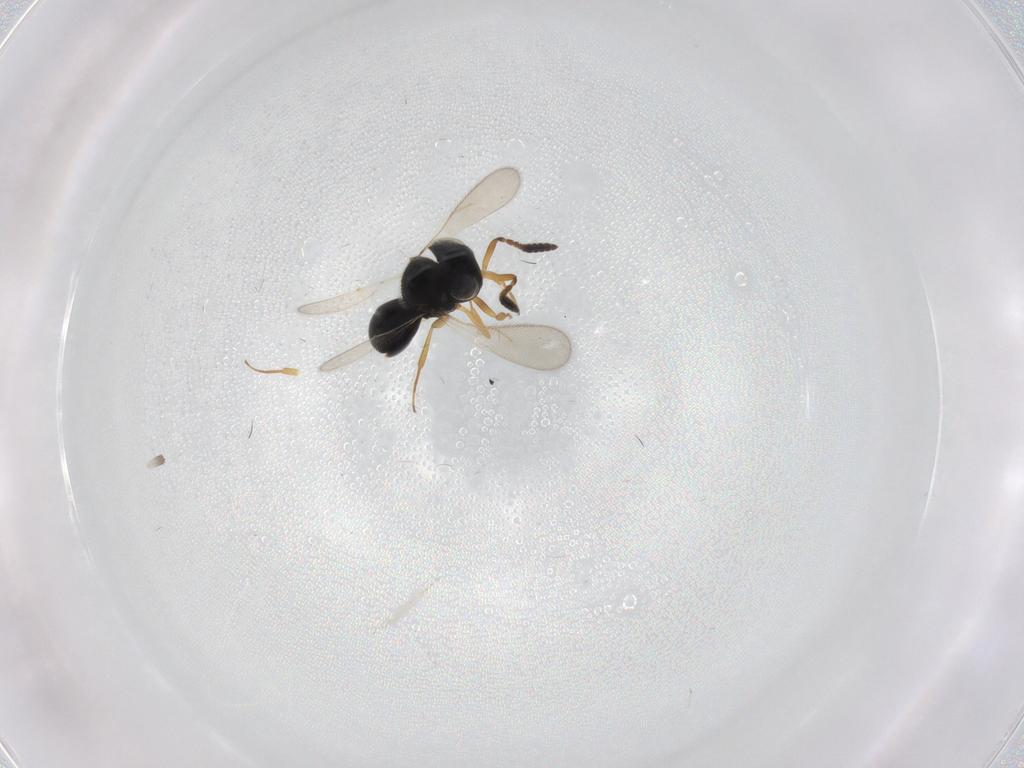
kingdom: Animalia
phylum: Arthropoda
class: Insecta
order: Hymenoptera
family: Scelionidae
